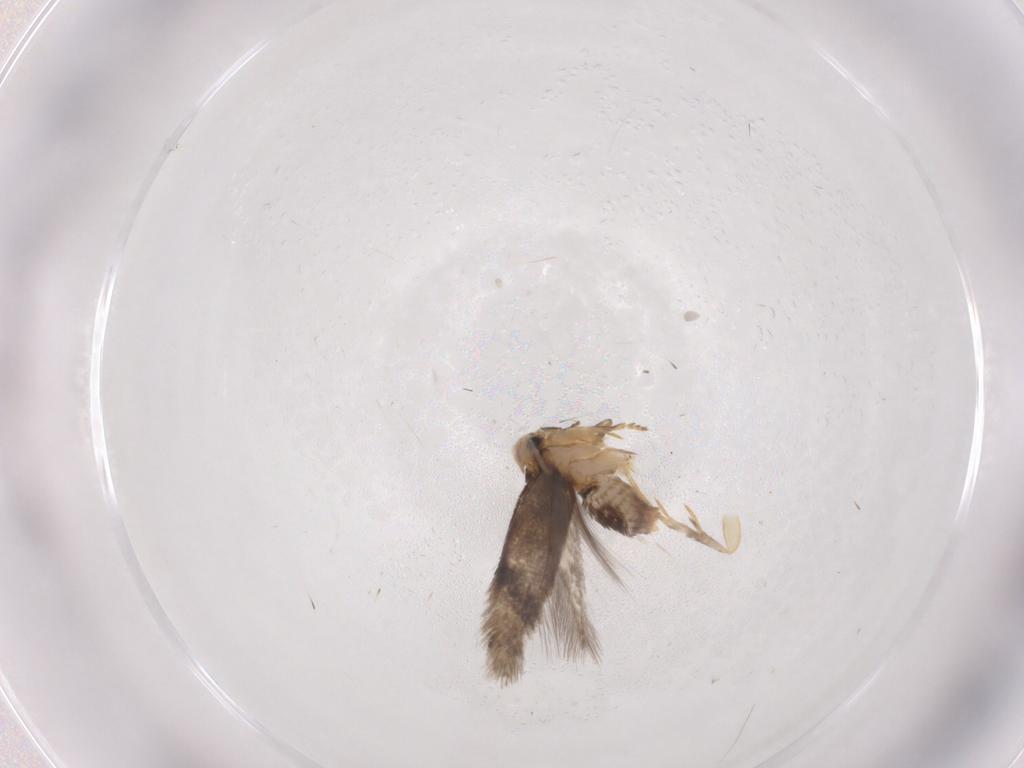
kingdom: Animalia
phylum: Arthropoda
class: Insecta
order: Lepidoptera
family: Nepticulidae
